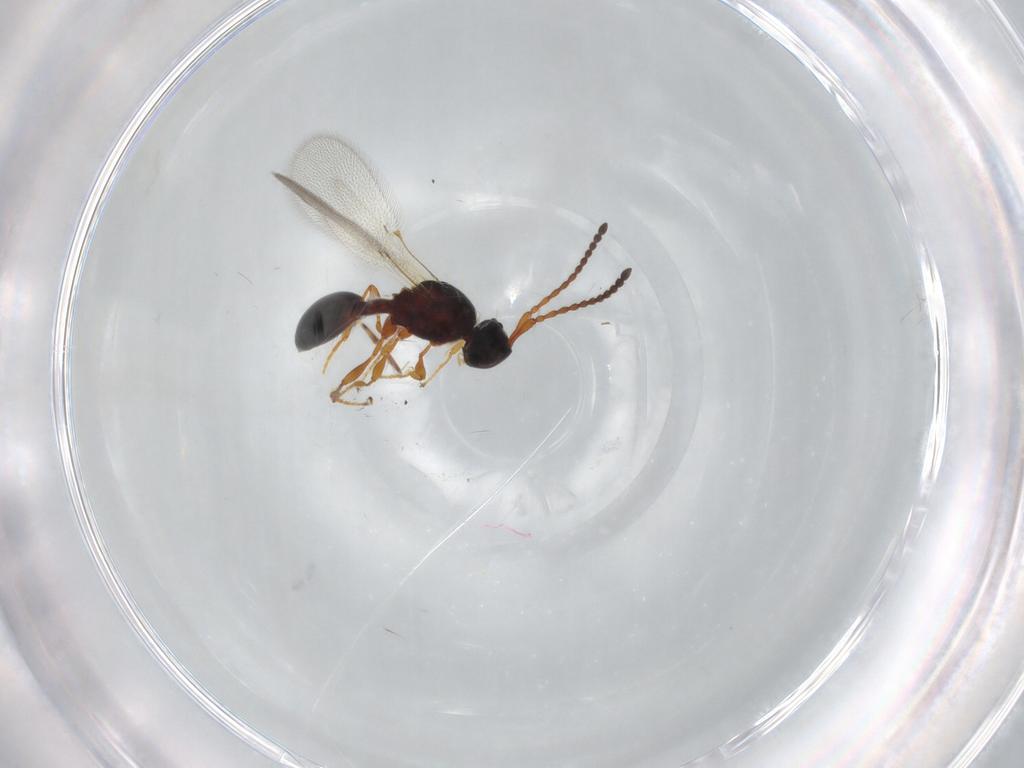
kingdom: Animalia
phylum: Arthropoda
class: Insecta
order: Hymenoptera
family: Diapriidae
